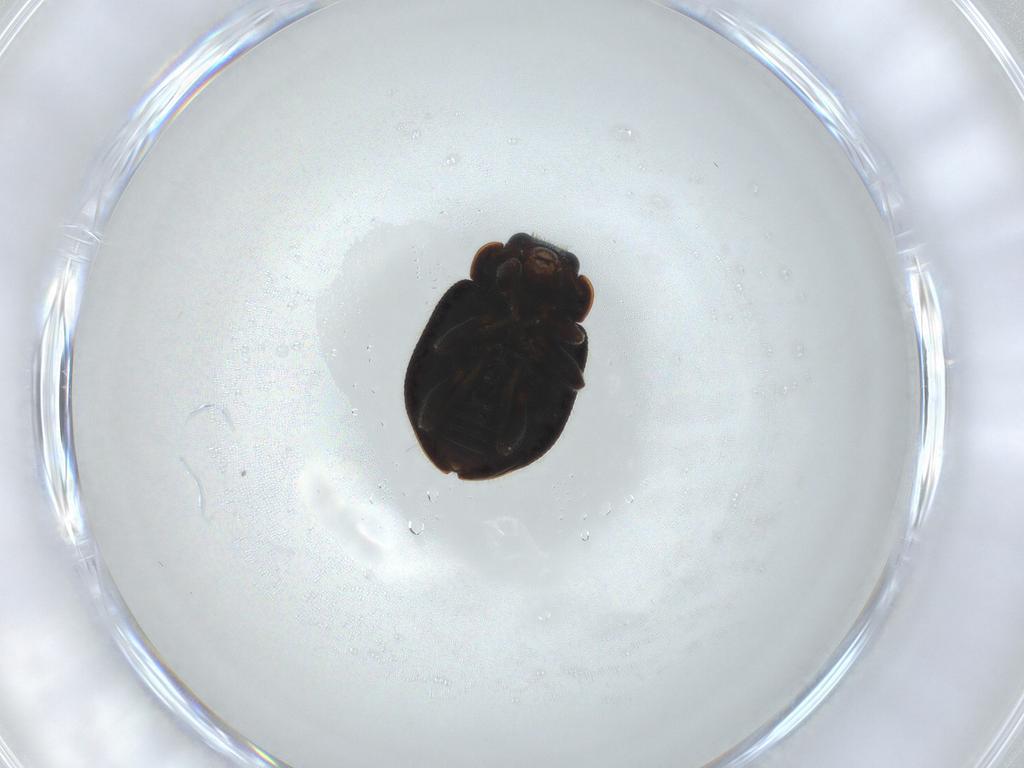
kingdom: Animalia
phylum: Arthropoda
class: Insecta
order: Coleoptera
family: Coccinellidae
